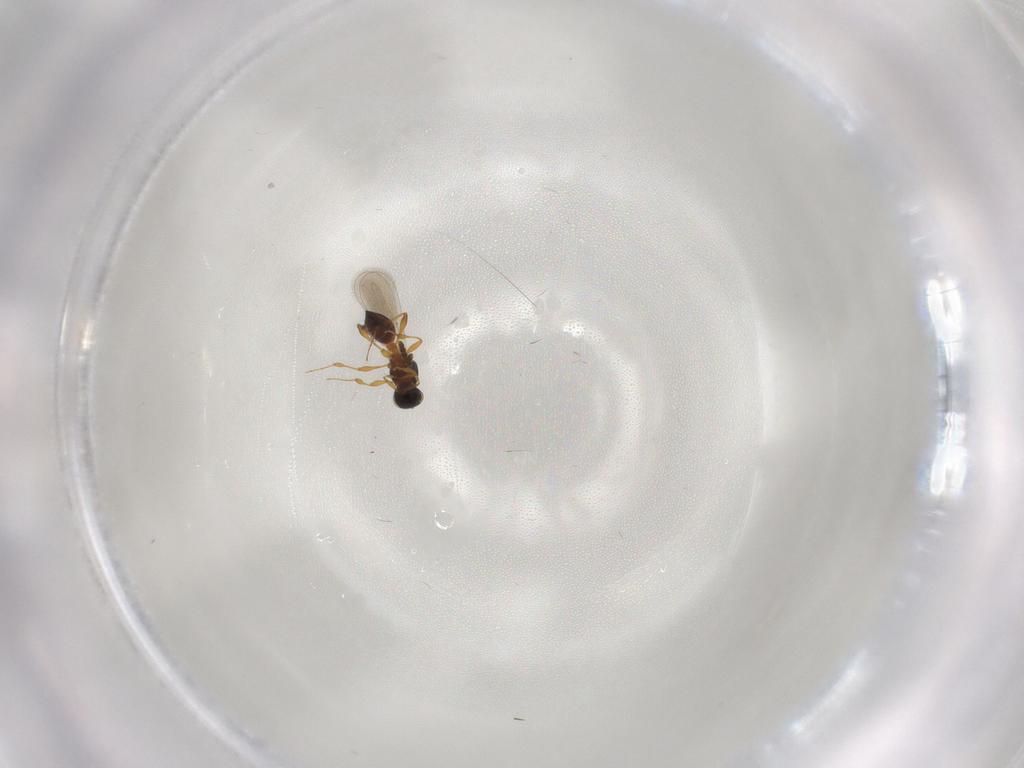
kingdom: Animalia
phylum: Arthropoda
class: Insecta
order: Hymenoptera
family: Platygastridae
